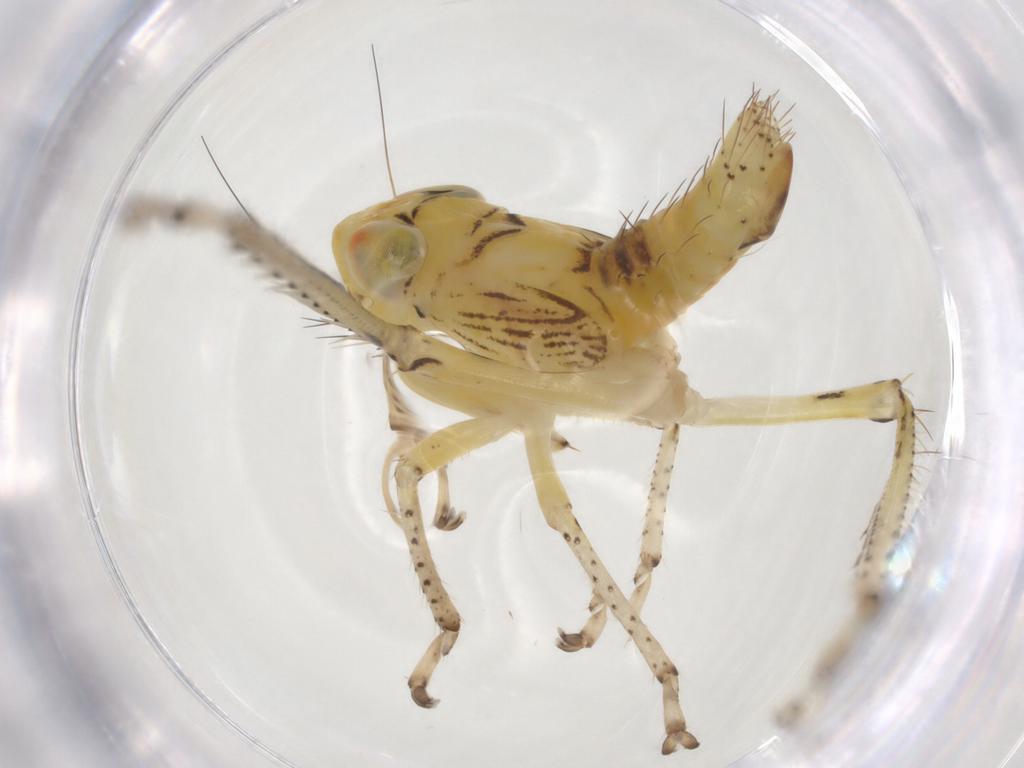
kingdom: Animalia
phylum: Arthropoda
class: Insecta
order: Hemiptera
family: Cicadellidae
